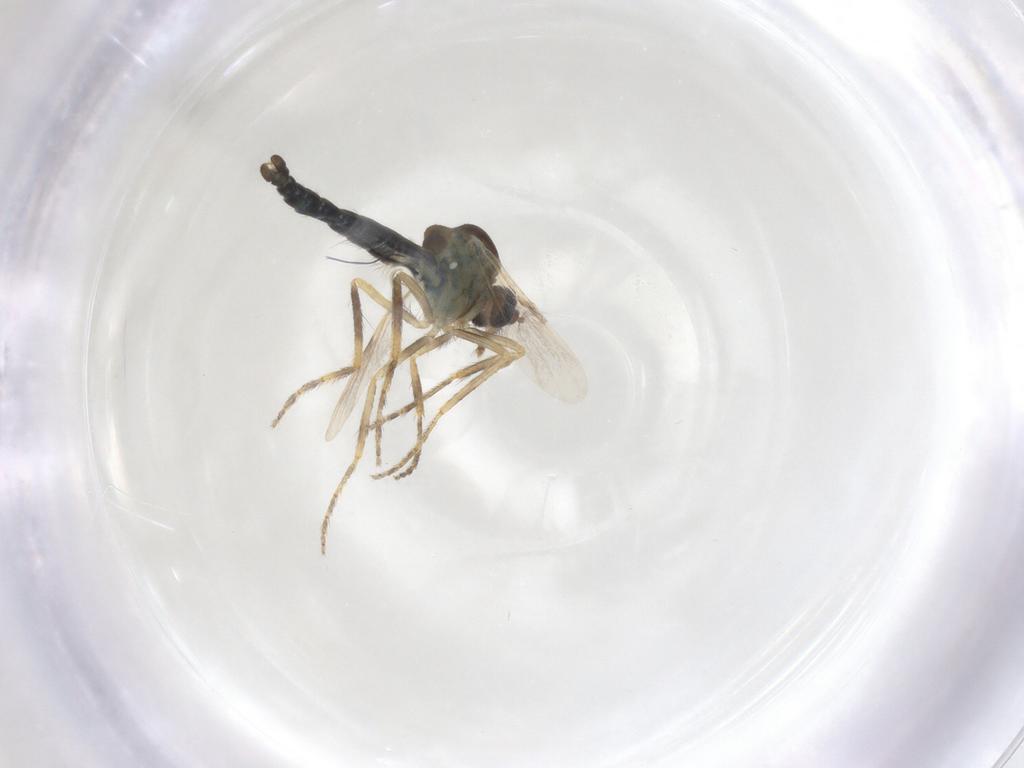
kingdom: Animalia
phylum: Arthropoda
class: Insecta
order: Diptera
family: Ceratopogonidae
